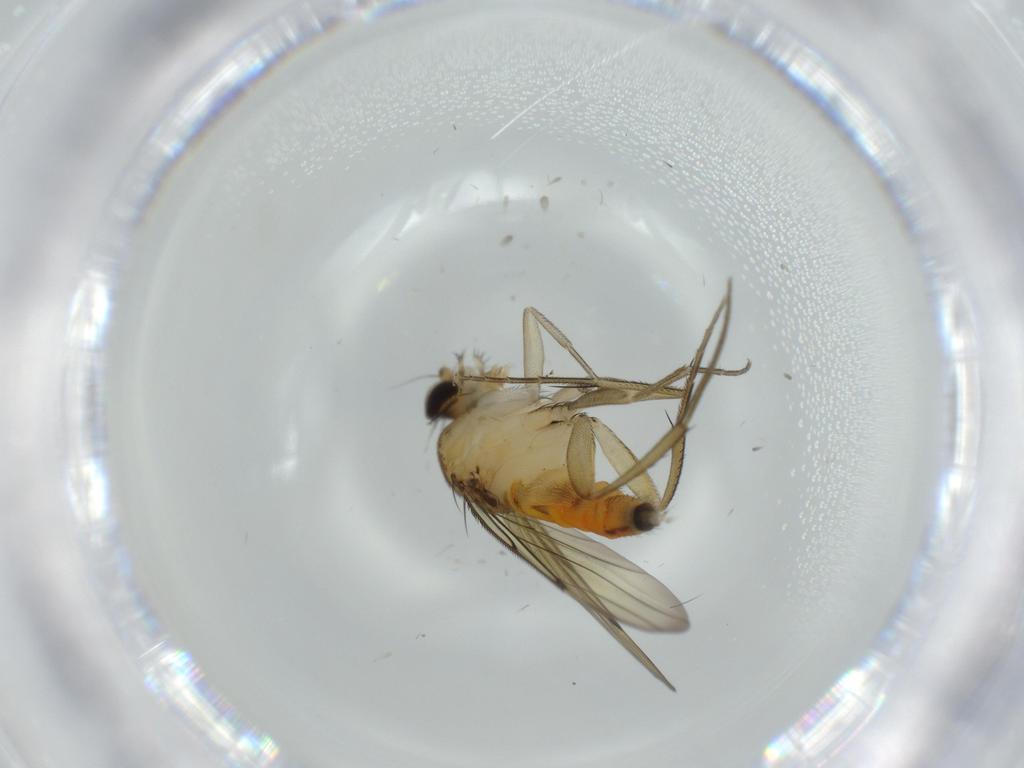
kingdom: Animalia
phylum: Arthropoda
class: Insecta
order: Diptera
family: Phoridae
